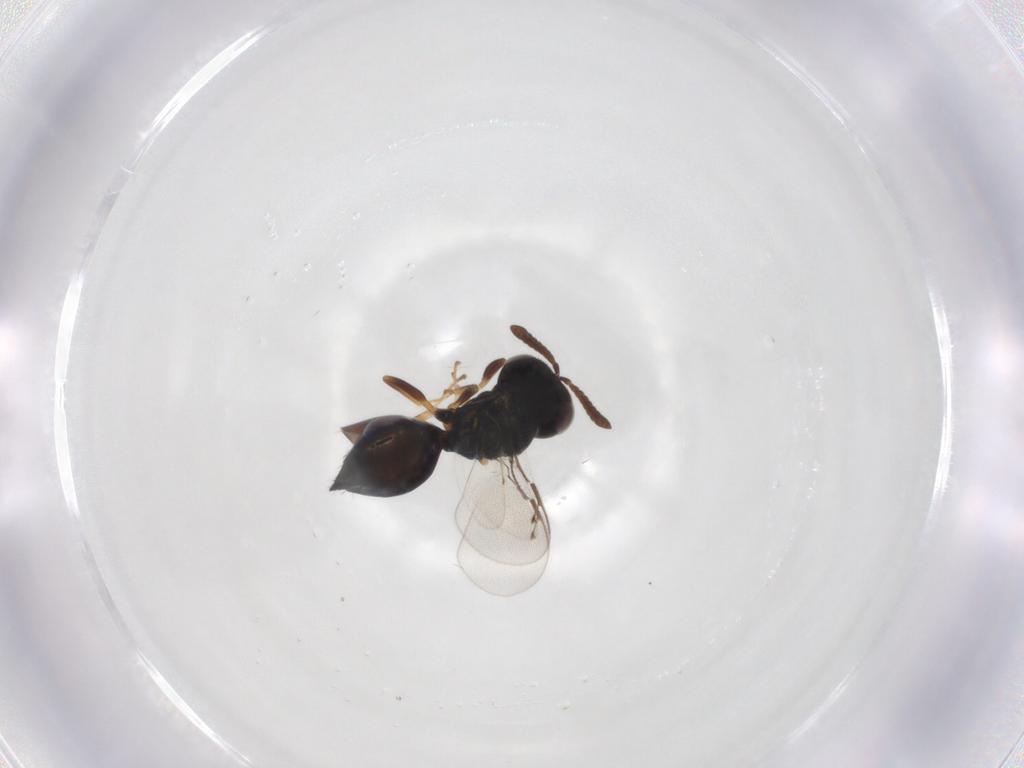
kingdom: Animalia
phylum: Arthropoda
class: Insecta
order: Hymenoptera
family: Pteromalidae
